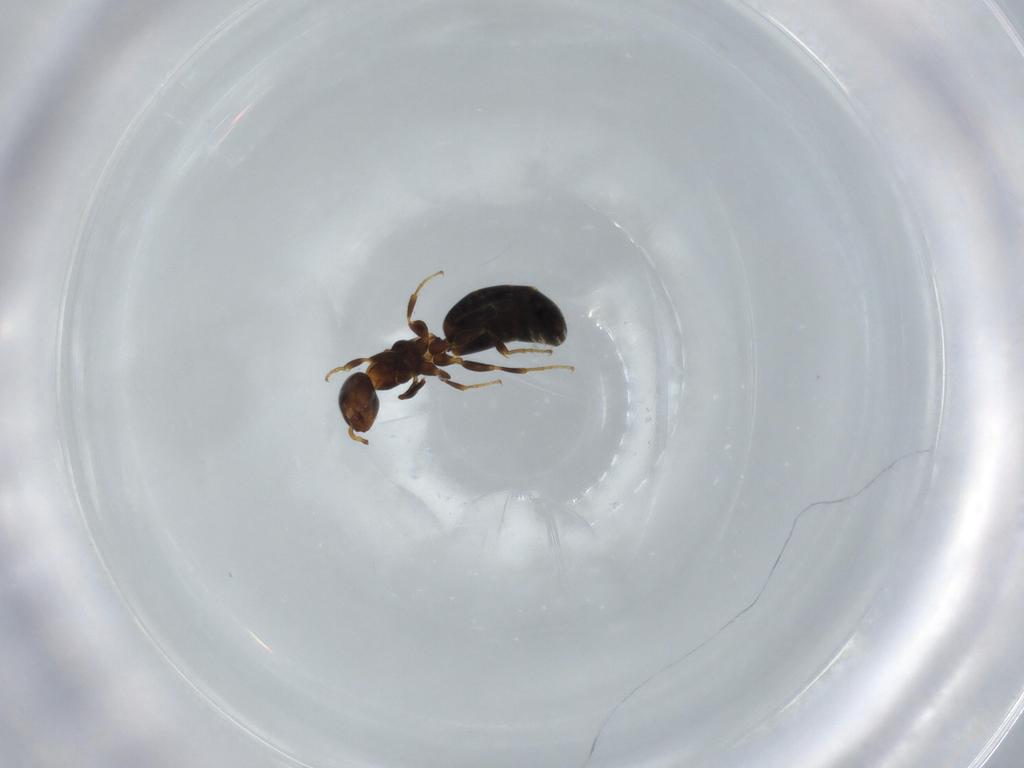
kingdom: Animalia
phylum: Arthropoda
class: Insecta
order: Hymenoptera
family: Bethylidae
